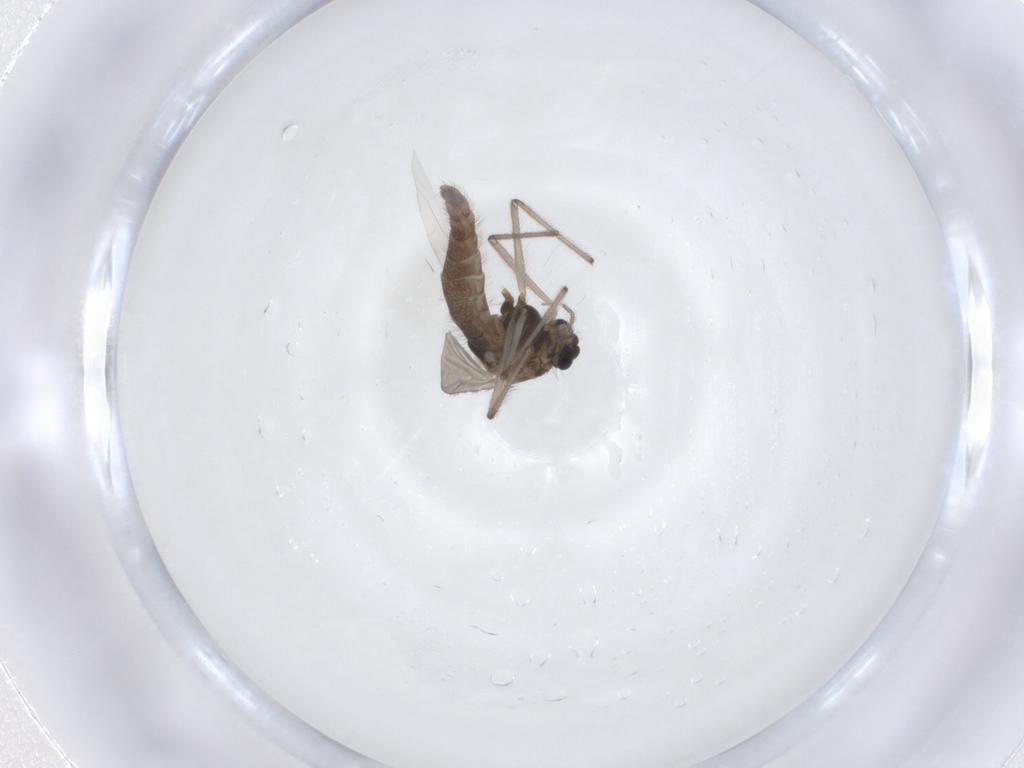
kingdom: Animalia
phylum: Arthropoda
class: Insecta
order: Diptera
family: Chironomidae
